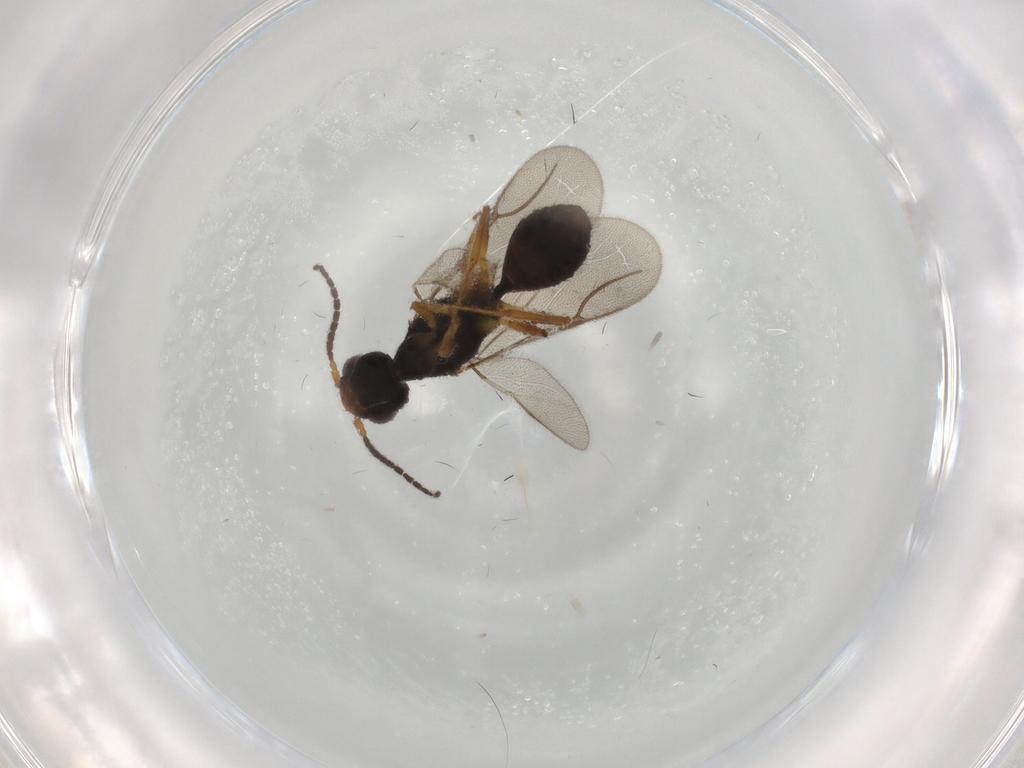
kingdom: Animalia
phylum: Arthropoda
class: Insecta
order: Hymenoptera
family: Bethylidae
